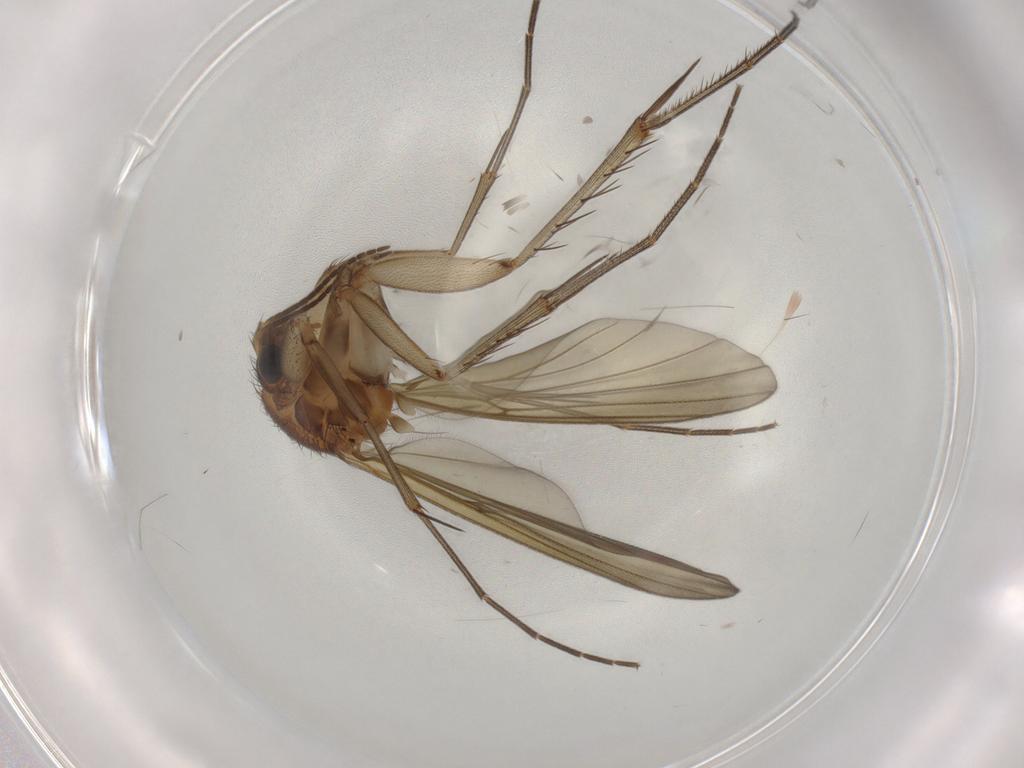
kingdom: Animalia
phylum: Arthropoda
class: Insecta
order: Diptera
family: Mycetophilidae
